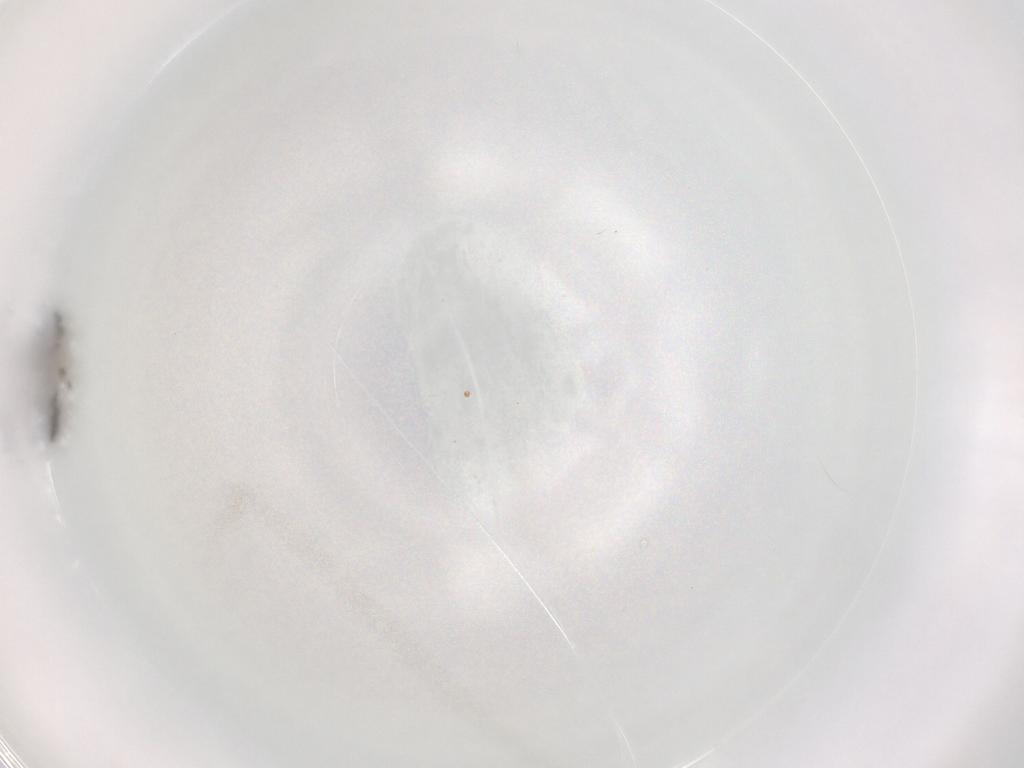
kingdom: Animalia
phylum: Arthropoda
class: Insecta
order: Diptera
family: Sciaridae
